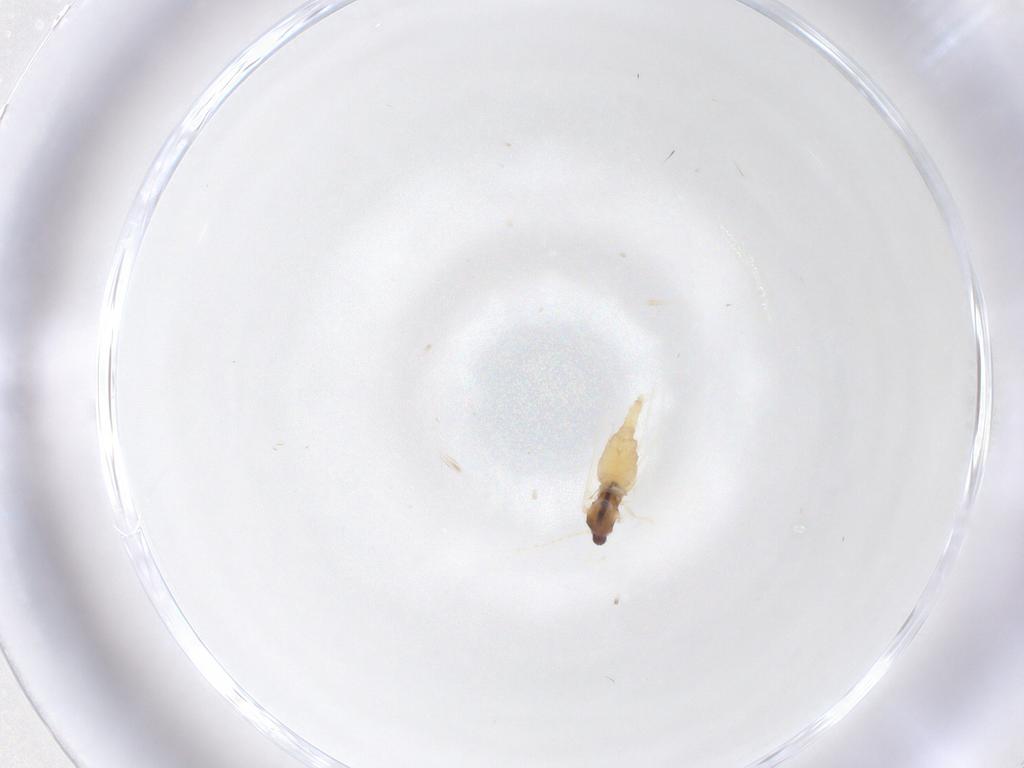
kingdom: Animalia
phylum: Arthropoda
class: Insecta
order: Diptera
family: Cecidomyiidae
